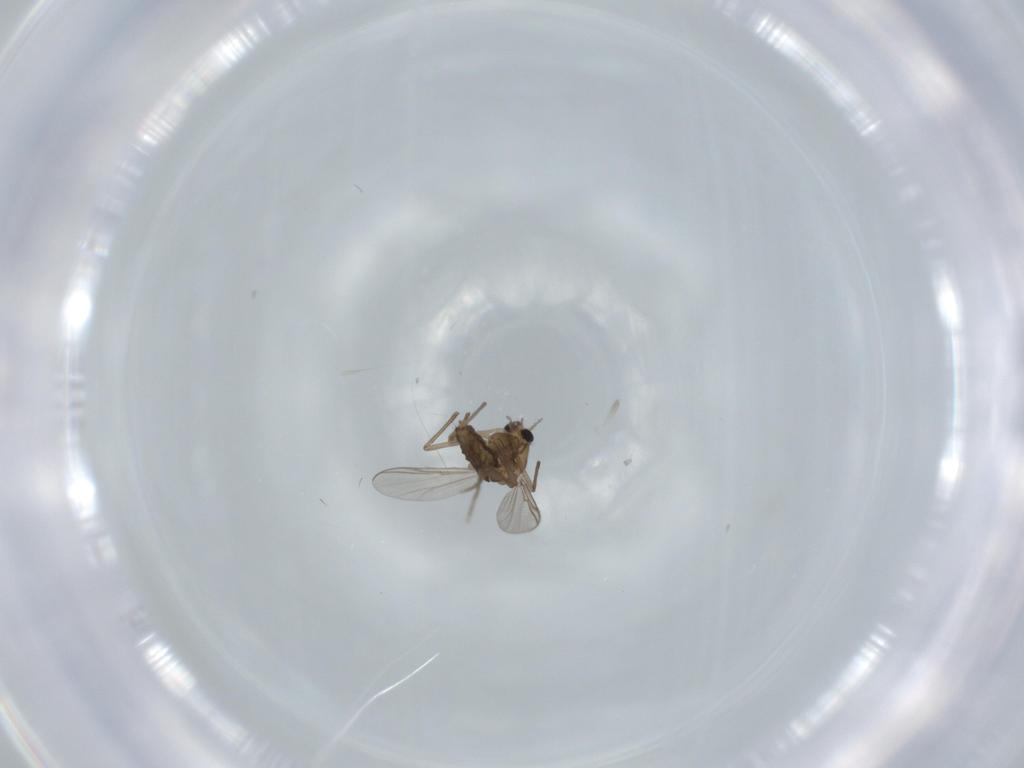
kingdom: Animalia
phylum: Arthropoda
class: Insecta
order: Diptera
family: Chironomidae
